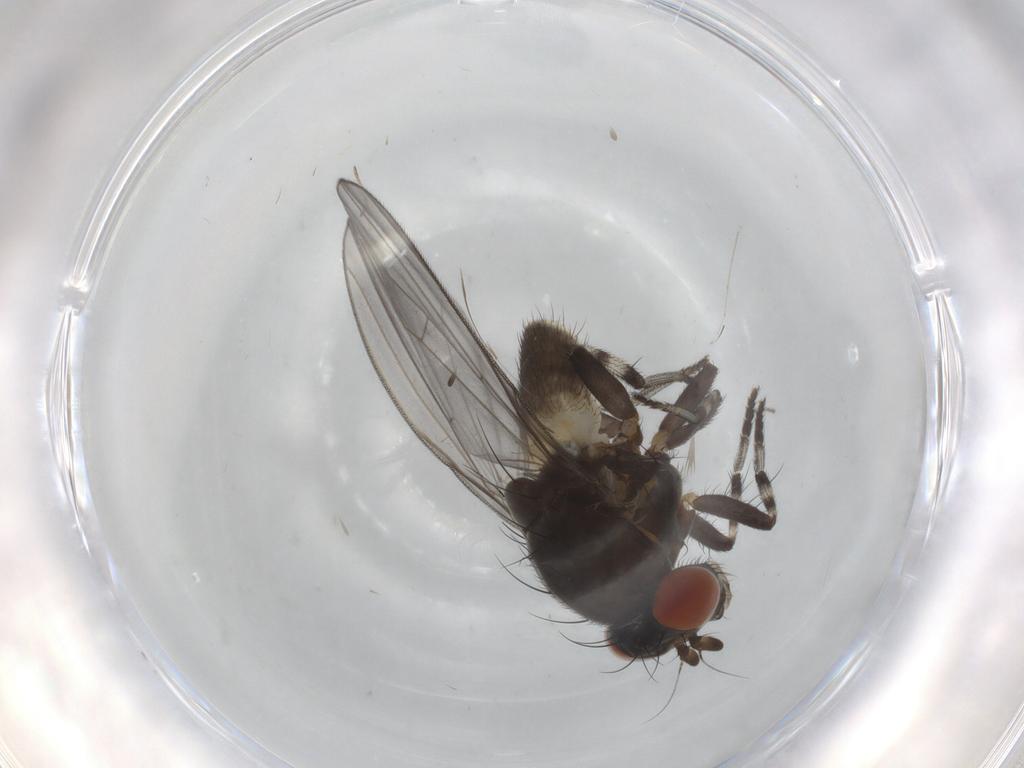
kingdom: Animalia
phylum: Arthropoda
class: Insecta
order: Diptera
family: Lauxaniidae
